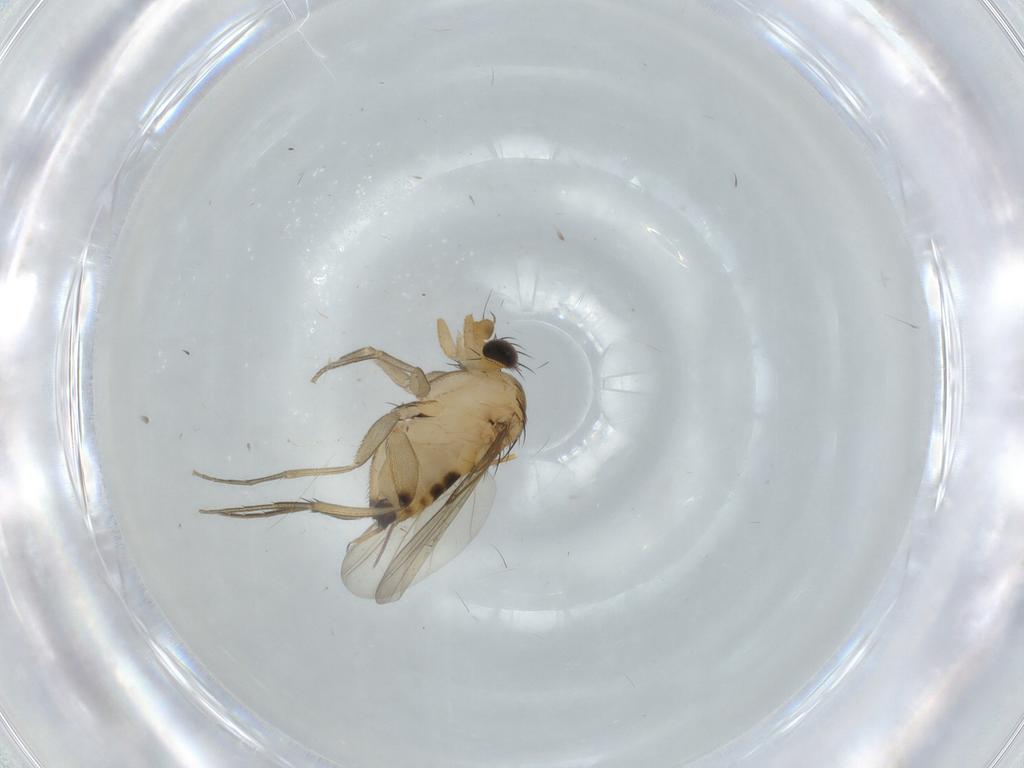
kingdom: Animalia
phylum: Arthropoda
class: Insecta
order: Diptera
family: Phoridae
